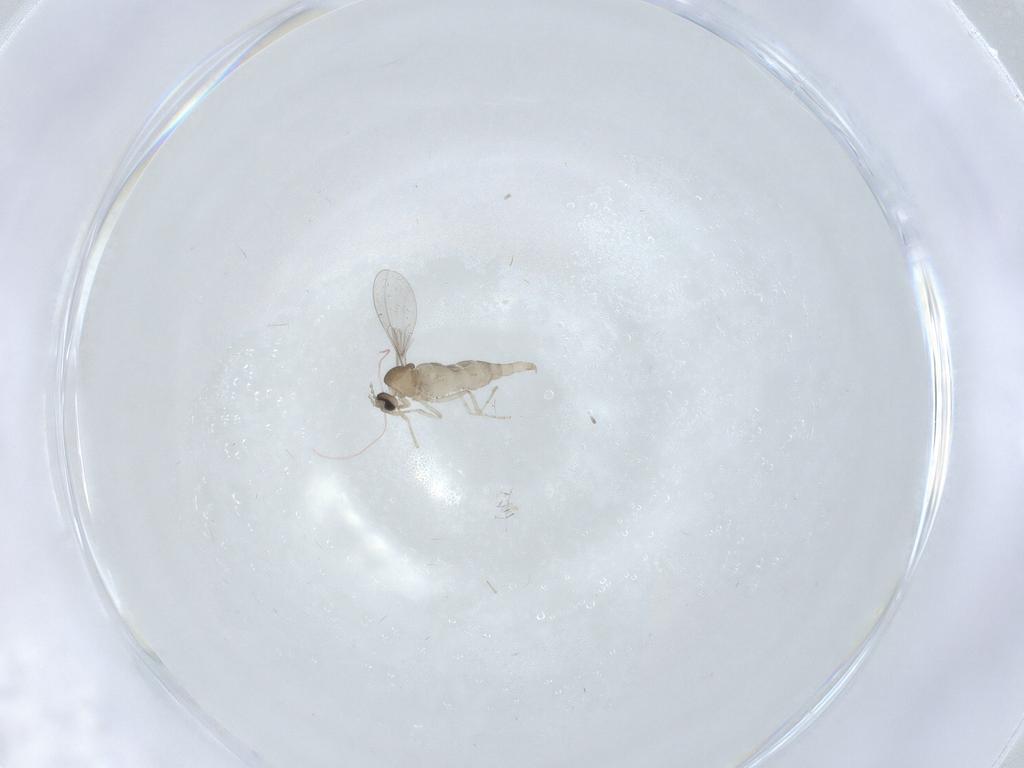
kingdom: Animalia
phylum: Arthropoda
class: Insecta
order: Diptera
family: Cecidomyiidae
